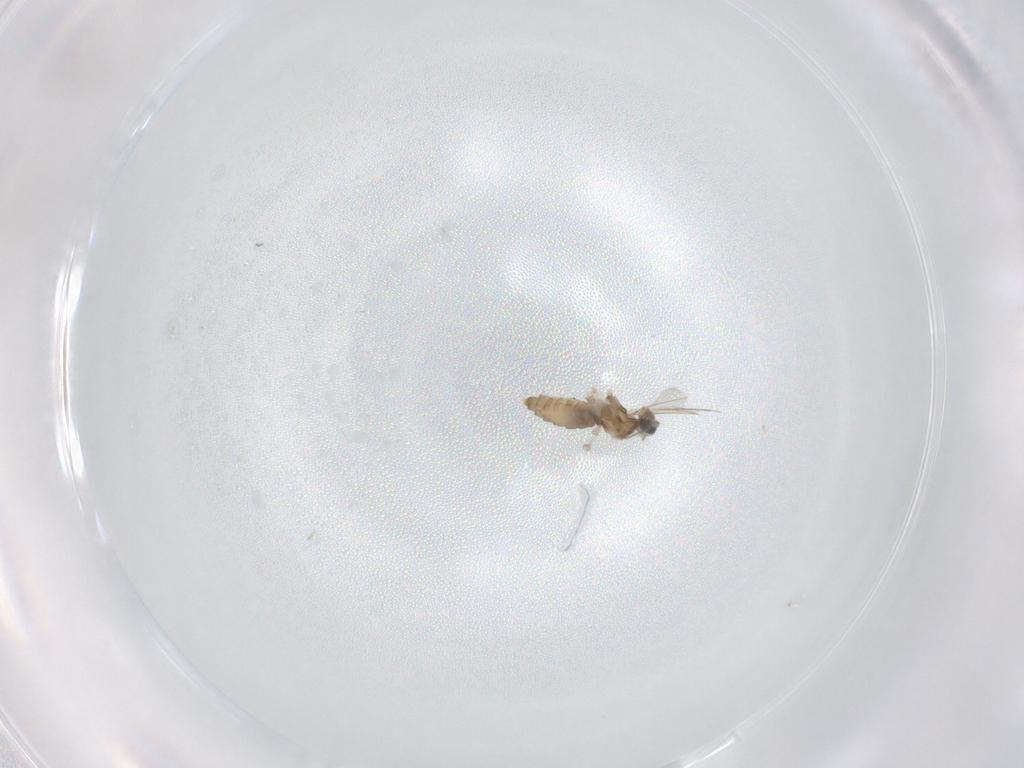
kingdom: Animalia
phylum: Arthropoda
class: Insecta
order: Diptera
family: Cecidomyiidae
